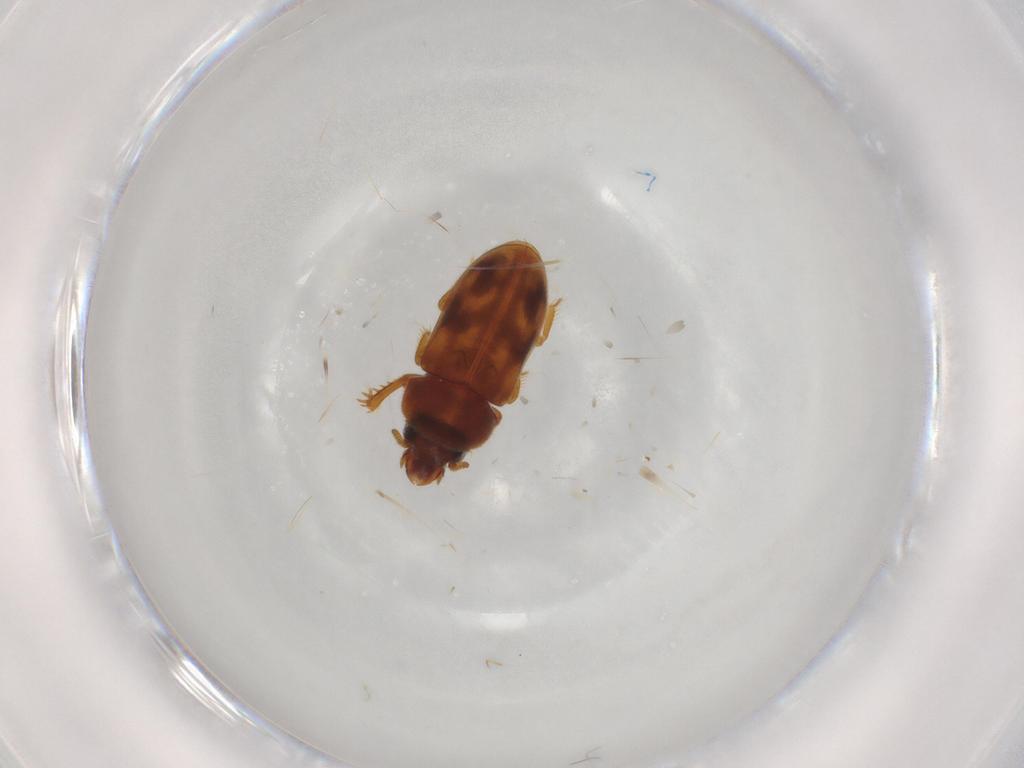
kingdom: Animalia
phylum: Arthropoda
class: Insecta
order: Coleoptera
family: Heteroceridae
